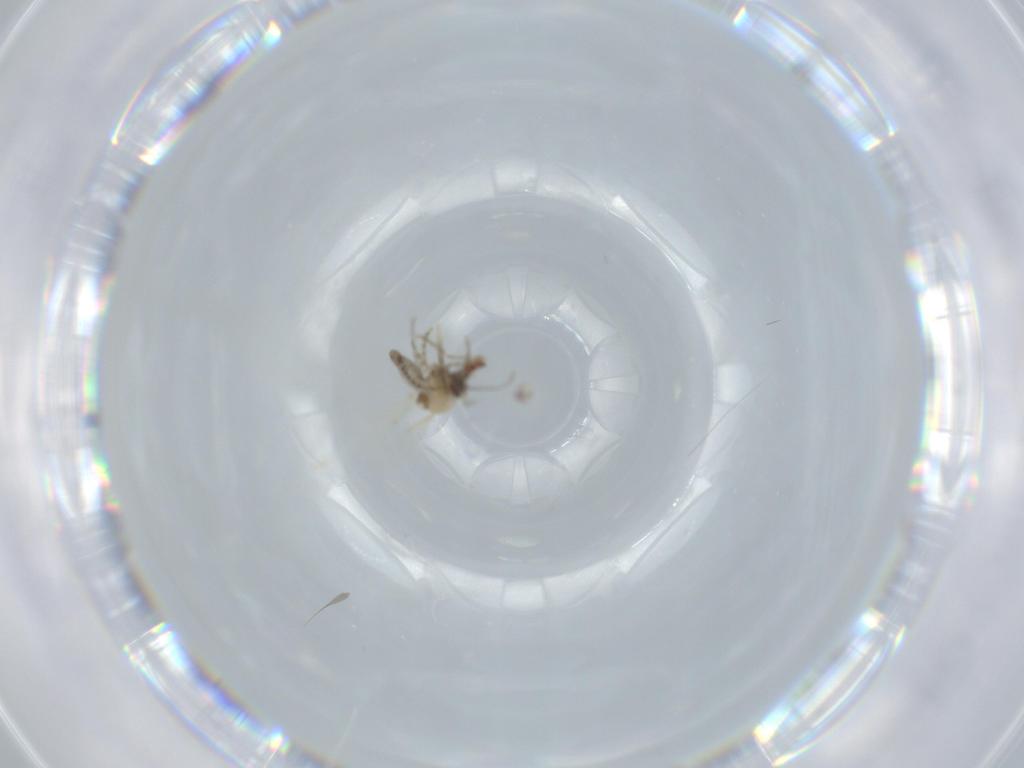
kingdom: Animalia
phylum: Arthropoda
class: Insecta
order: Diptera
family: Cecidomyiidae
